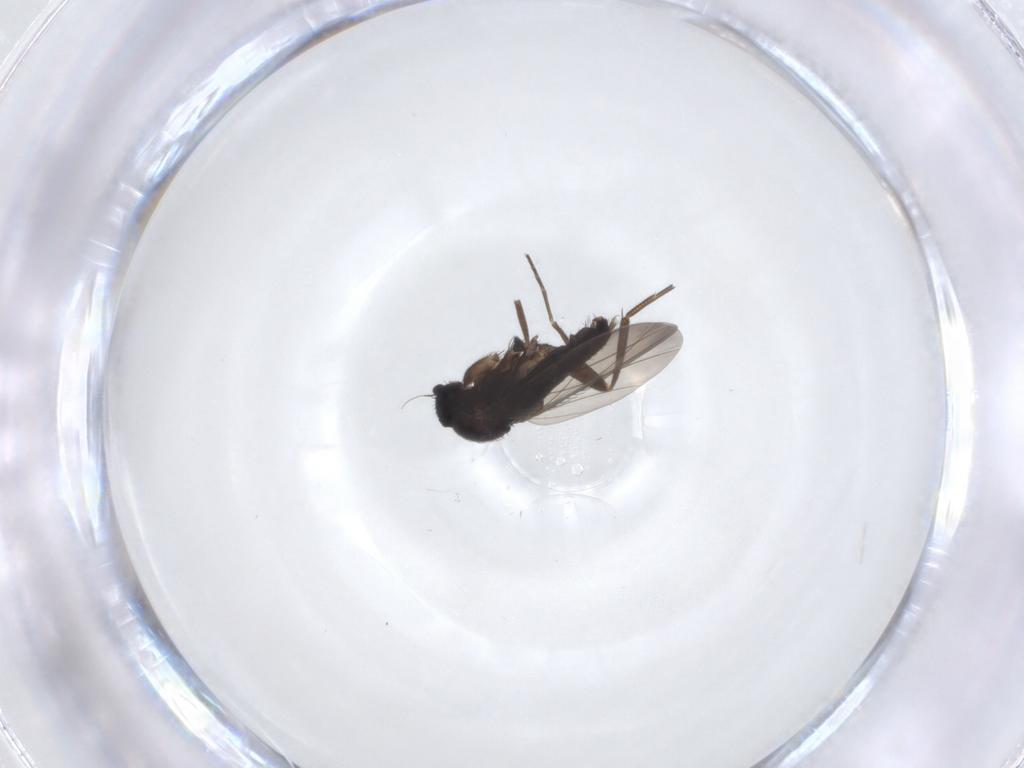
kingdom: Animalia
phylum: Arthropoda
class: Insecta
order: Diptera
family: Phoridae
